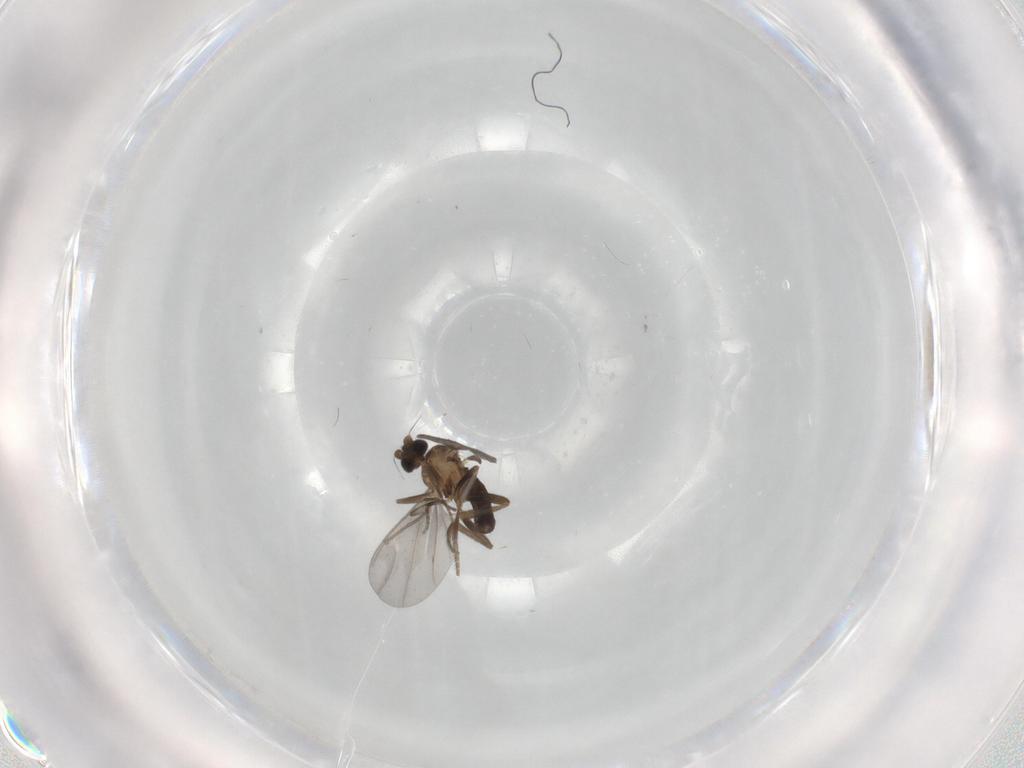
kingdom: Animalia
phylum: Arthropoda
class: Insecta
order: Diptera
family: Phoridae
